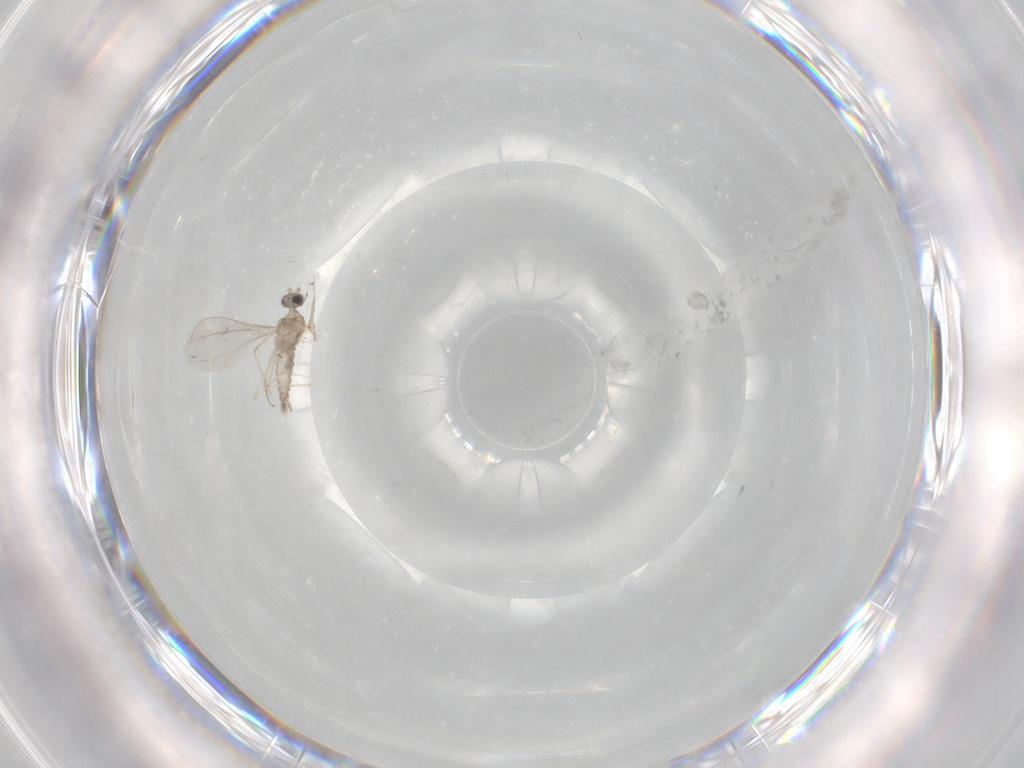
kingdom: Animalia
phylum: Arthropoda
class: Insecta
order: Diptera
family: Cecidomyiidae
